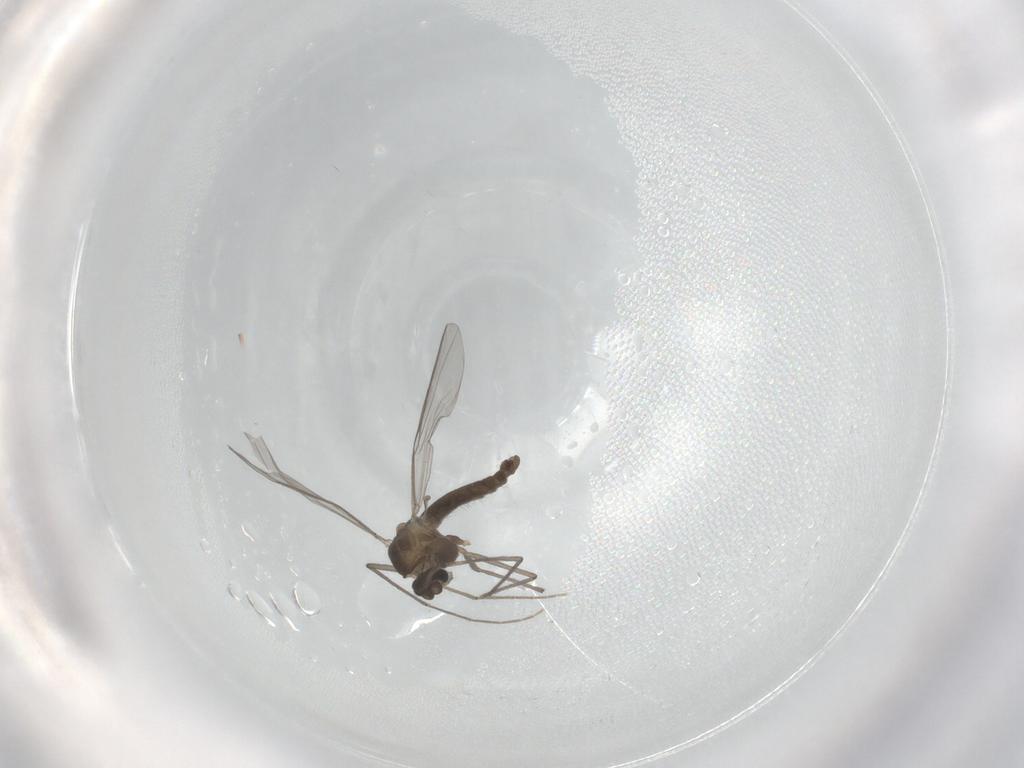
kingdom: Animalia
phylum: Arthropoda
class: Insecta
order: Diptera
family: Chironomidae
